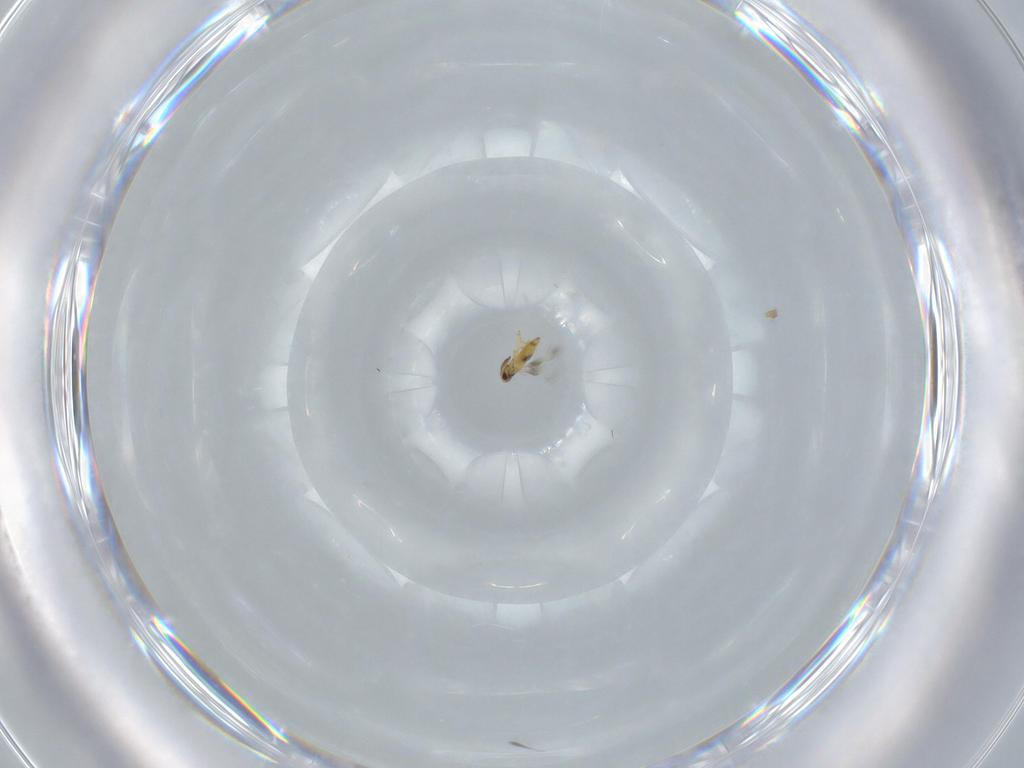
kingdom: Animalia
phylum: Arthropoda
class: Insecta
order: Hymenoptera
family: Scelionidae
